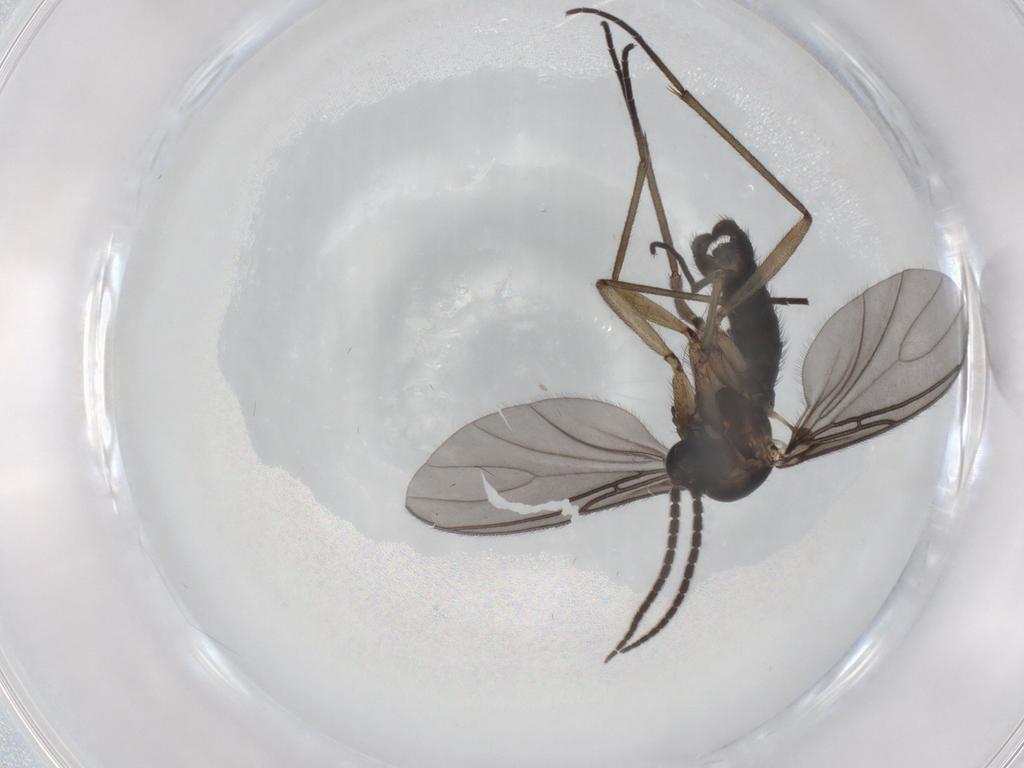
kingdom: Animalia
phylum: Arthropoda
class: Insecta
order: Diptera
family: Sciaridae
